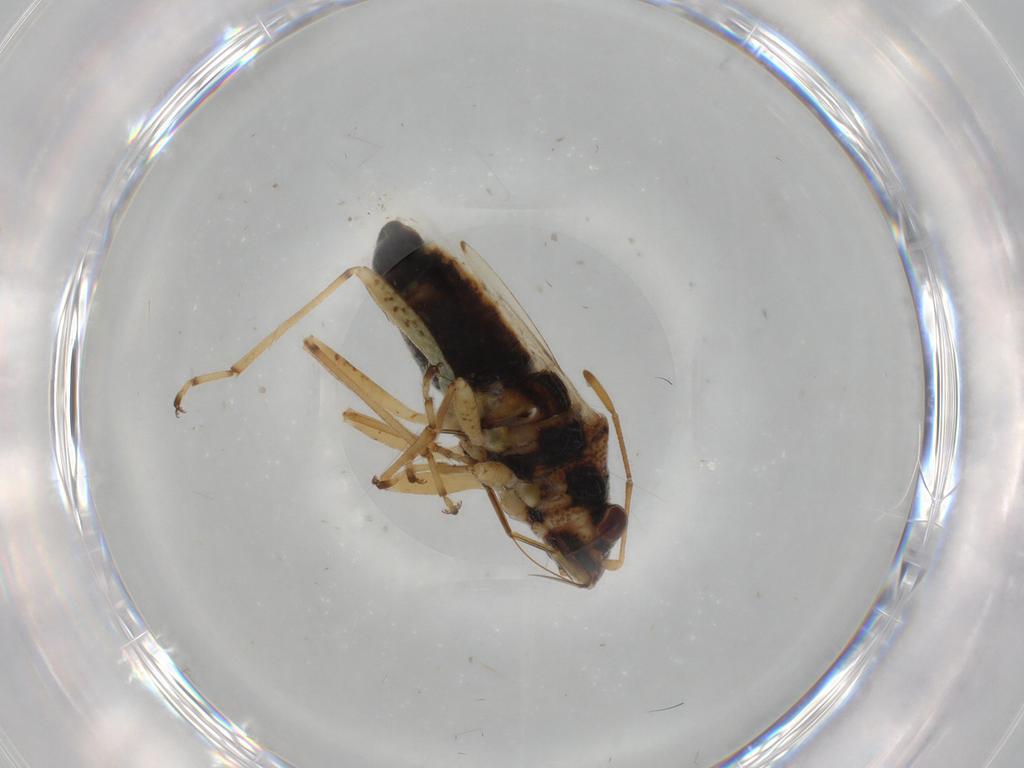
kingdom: Animalia
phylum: Arthropoda
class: Insecta
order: Hemiptera
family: Lygaeidae
